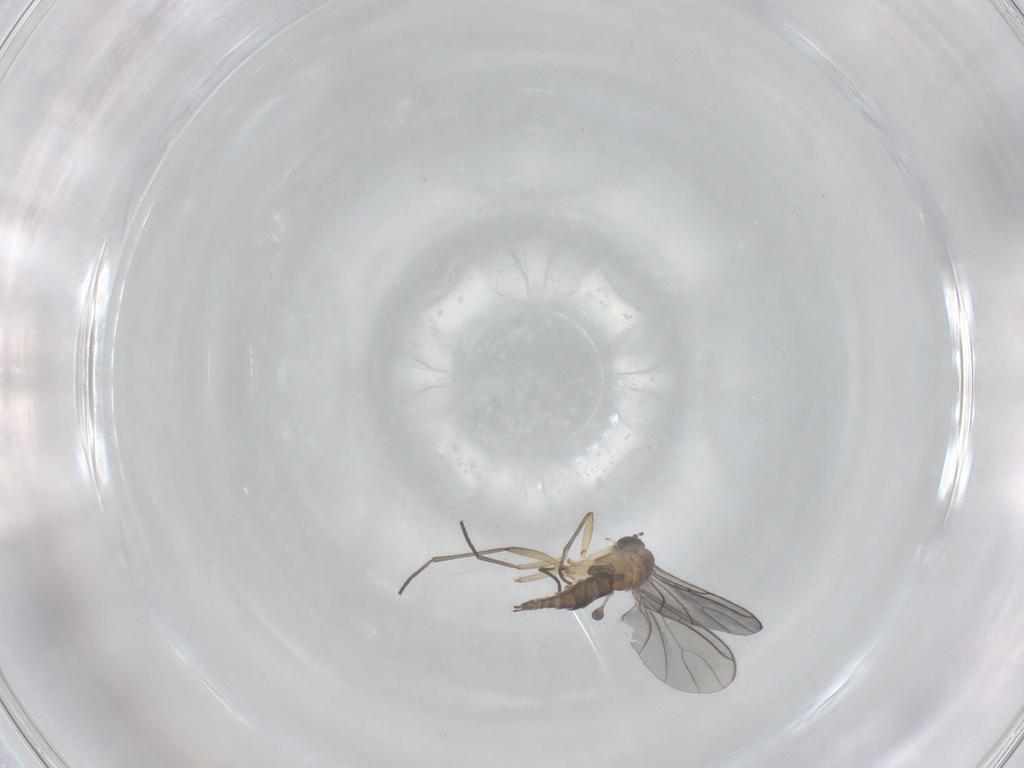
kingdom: Animalia
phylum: Arthropoda
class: Insecta
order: Diptera
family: Sciaridae
